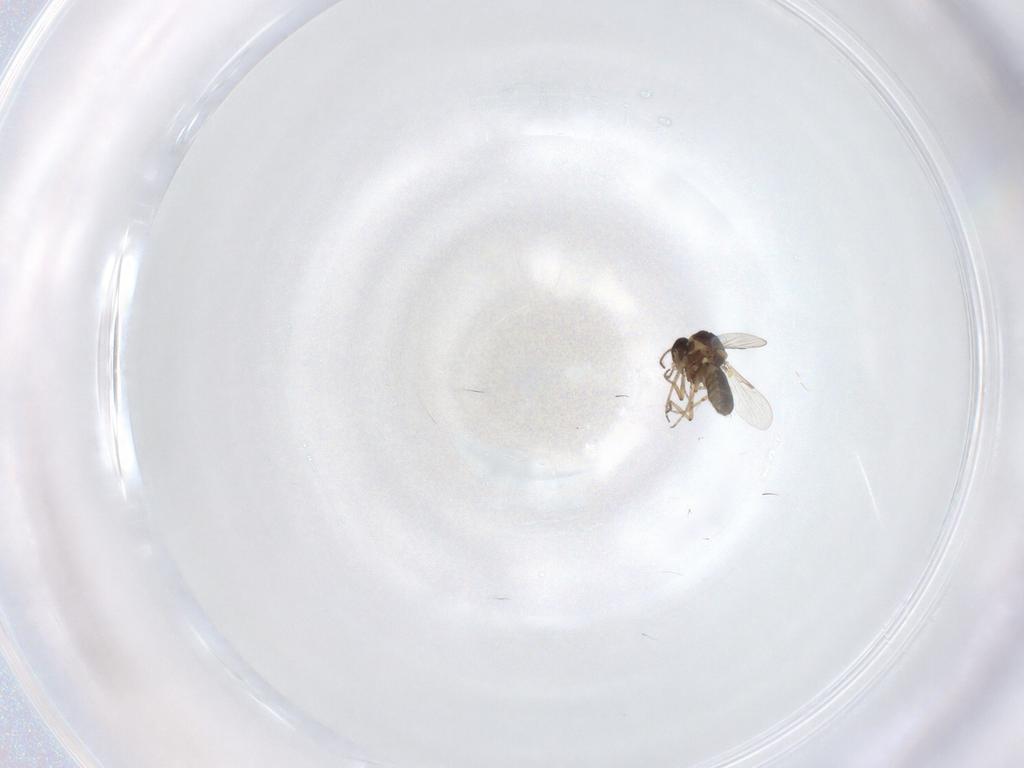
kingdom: Animalia
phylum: Arthropoda
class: Insecta
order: Diptera
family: Ceratopogonidae
